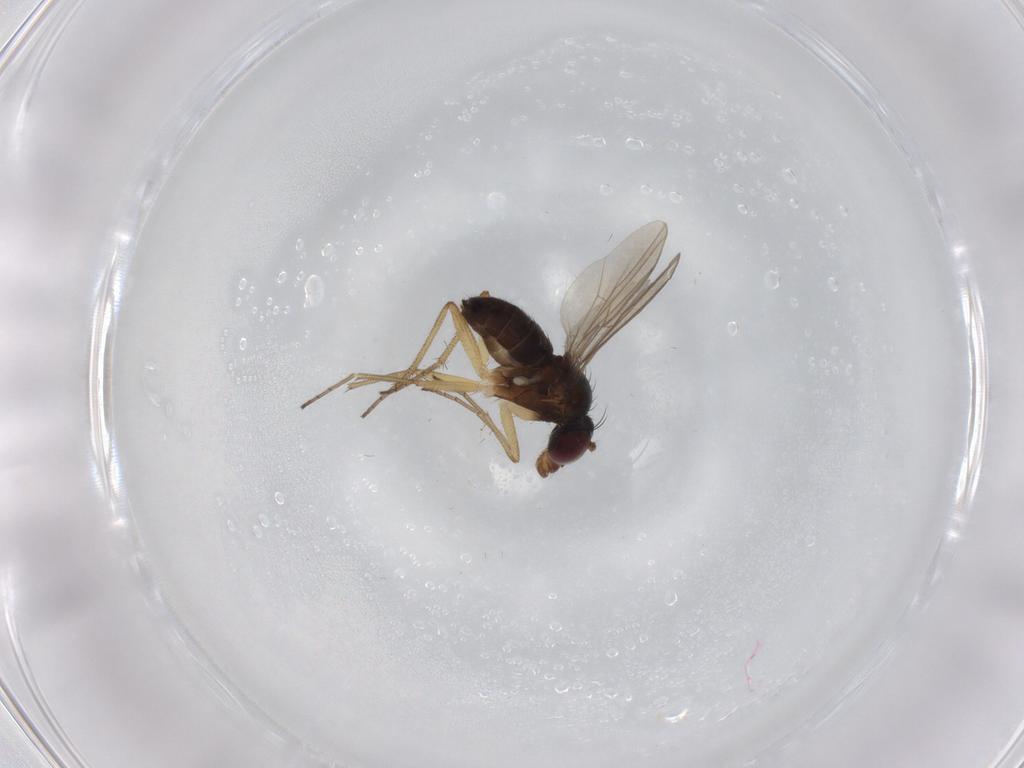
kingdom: Animalia
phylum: Arthropoda
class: Insecta
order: Diptera
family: Dolichopodidae
